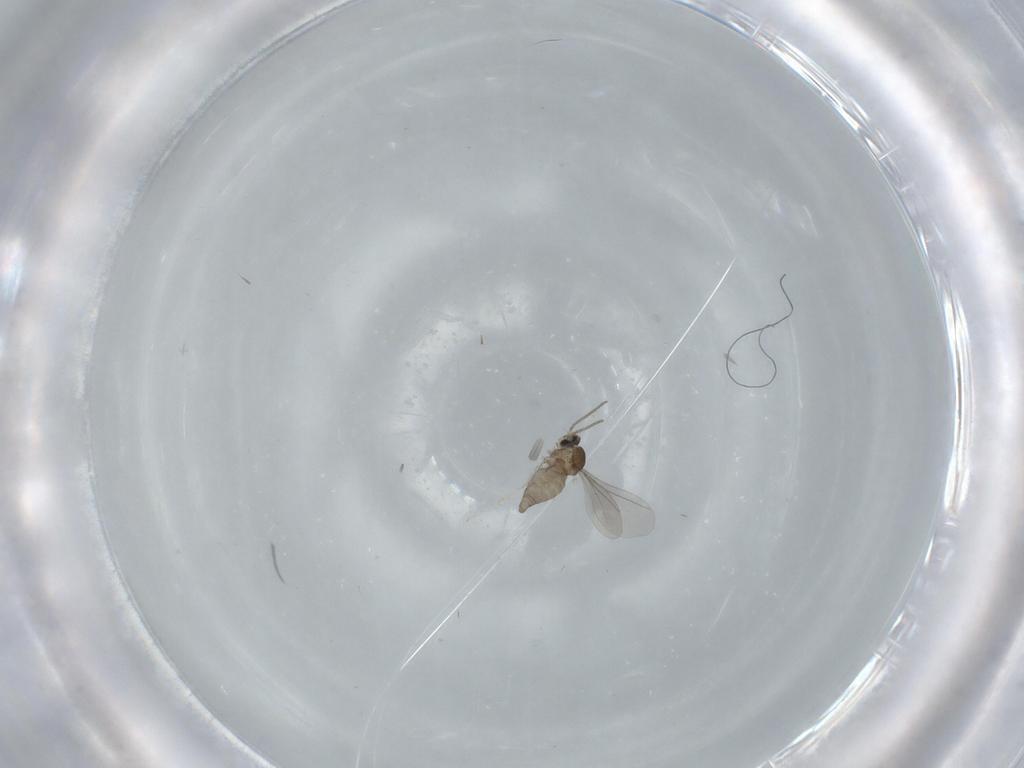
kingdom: Animalia
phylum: Arthropoda
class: Insecta
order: Diptera
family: Cecidomyiidae
